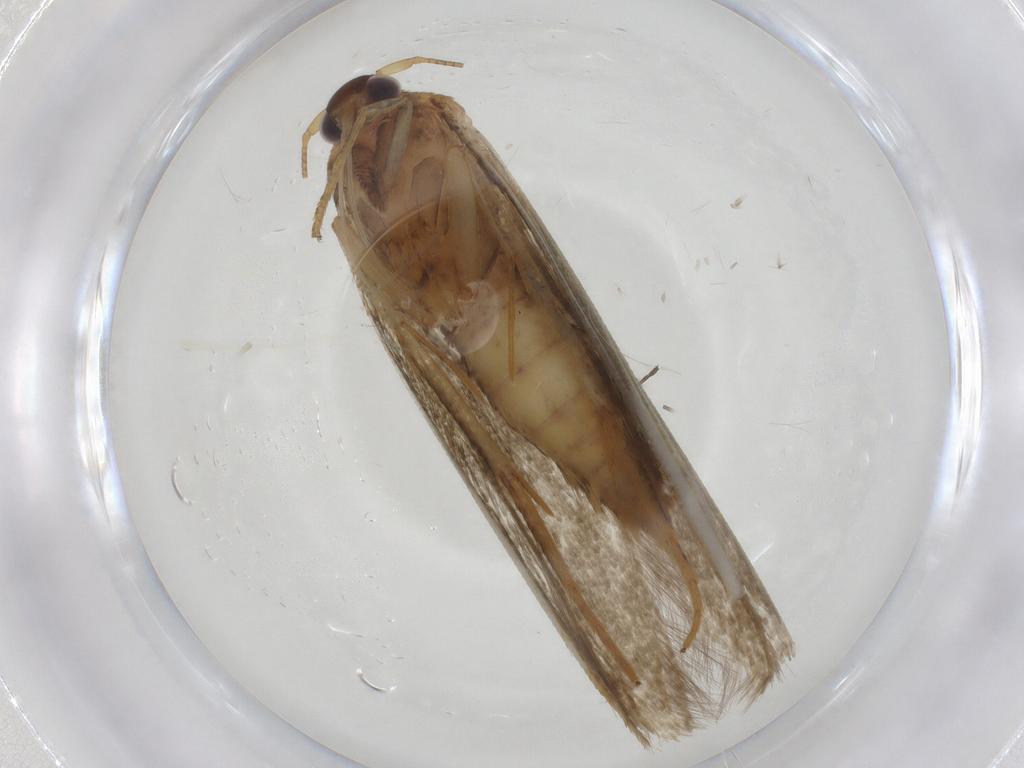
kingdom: Animalia
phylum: Arthropoda
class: Insecta
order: Lepidoptera
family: Blastobasidae
